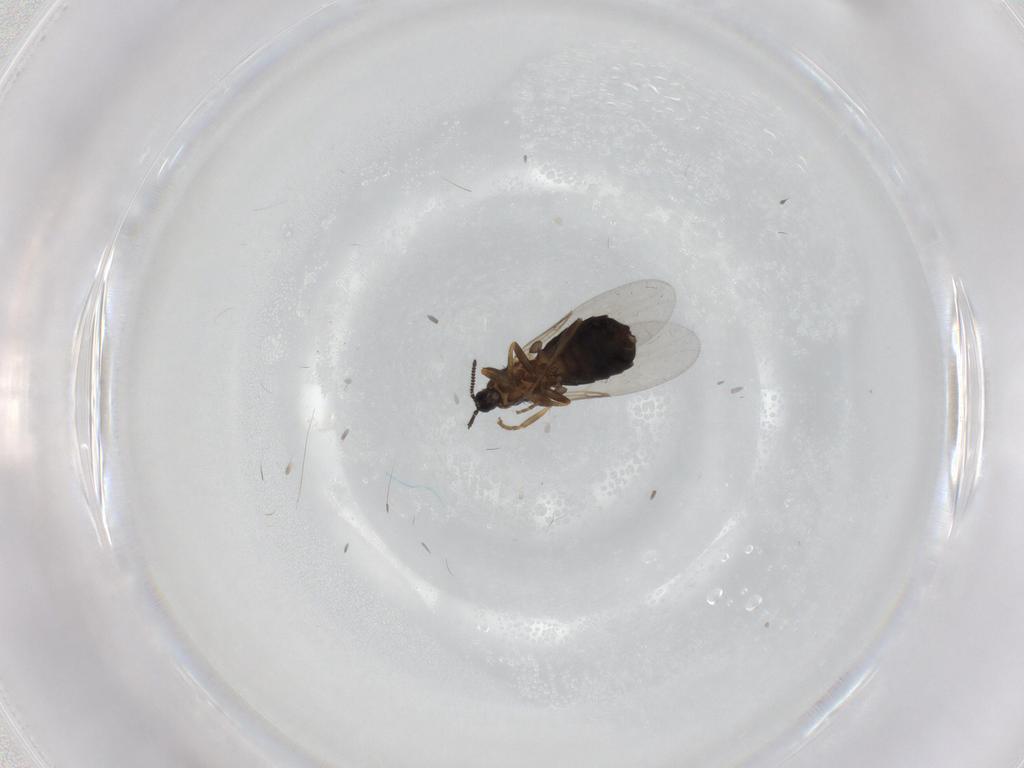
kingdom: Animalia
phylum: Arthropoda
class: Insecta
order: Diptera
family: Scatopsidae
